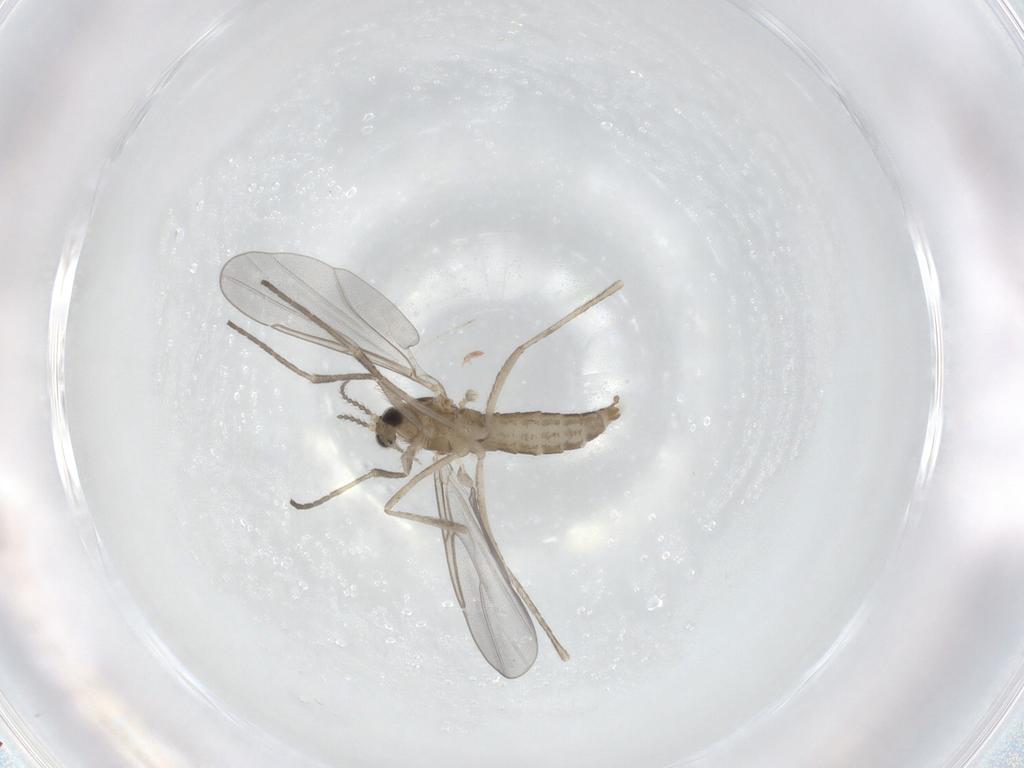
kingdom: Animalia
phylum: Arthropoda
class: Insecta
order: Diptera
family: Cecidomyiidae
